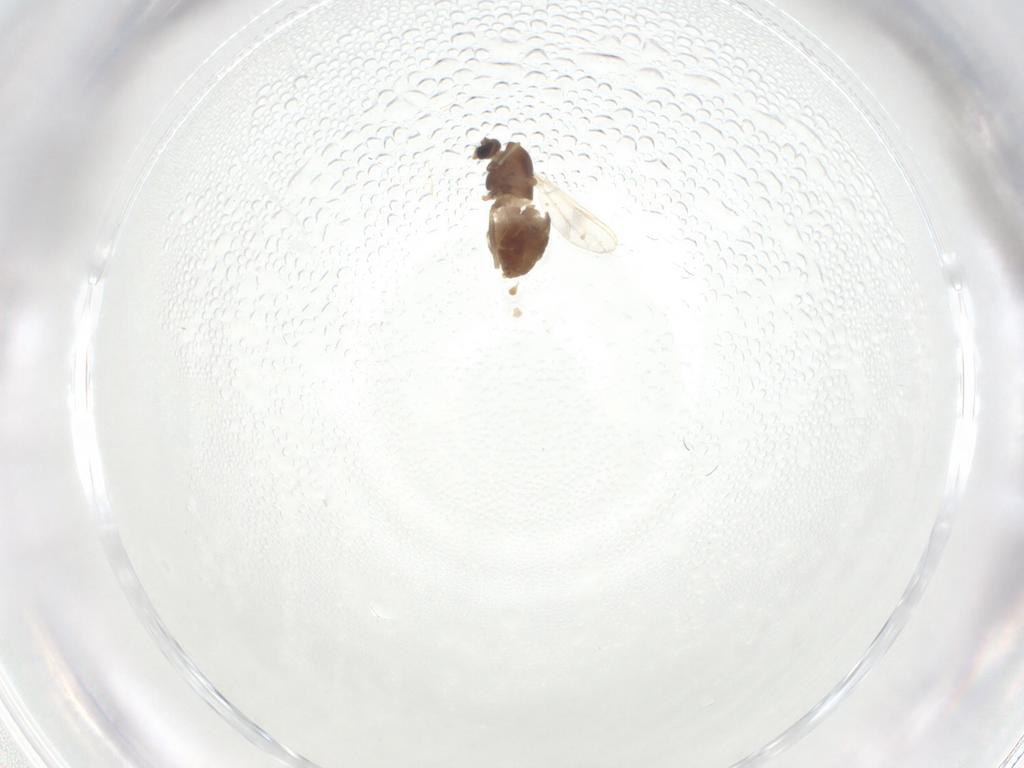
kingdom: Animalia
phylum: Arthropoda
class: Insecta
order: Diptera
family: Chironomidae
